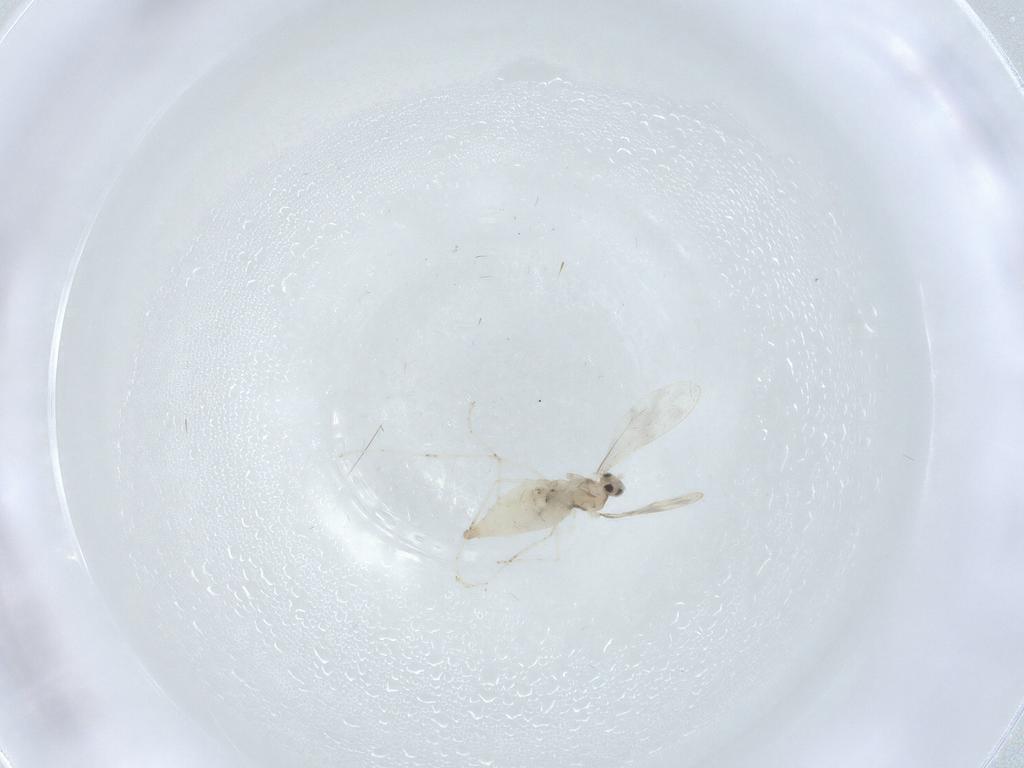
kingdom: Animalia
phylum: Arthropoda
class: Insecta
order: Diptera
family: Cecidomyiidae
